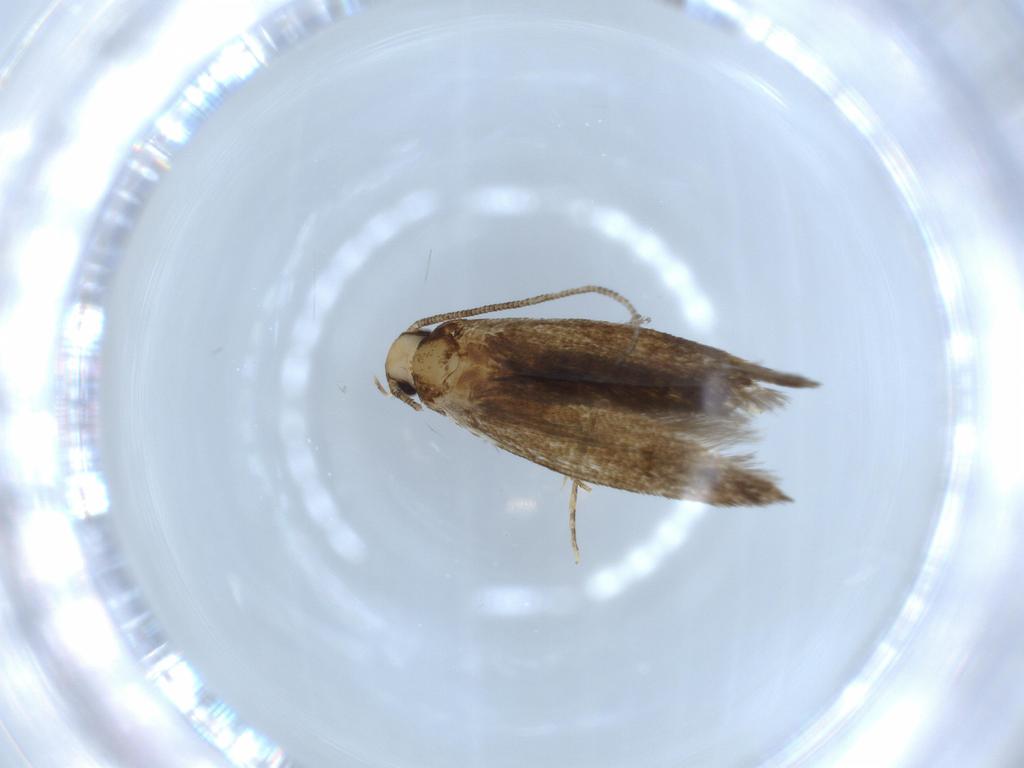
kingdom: Animalia
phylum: Arthropoda
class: Insecta
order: Lepidoptera
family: Tineidae
